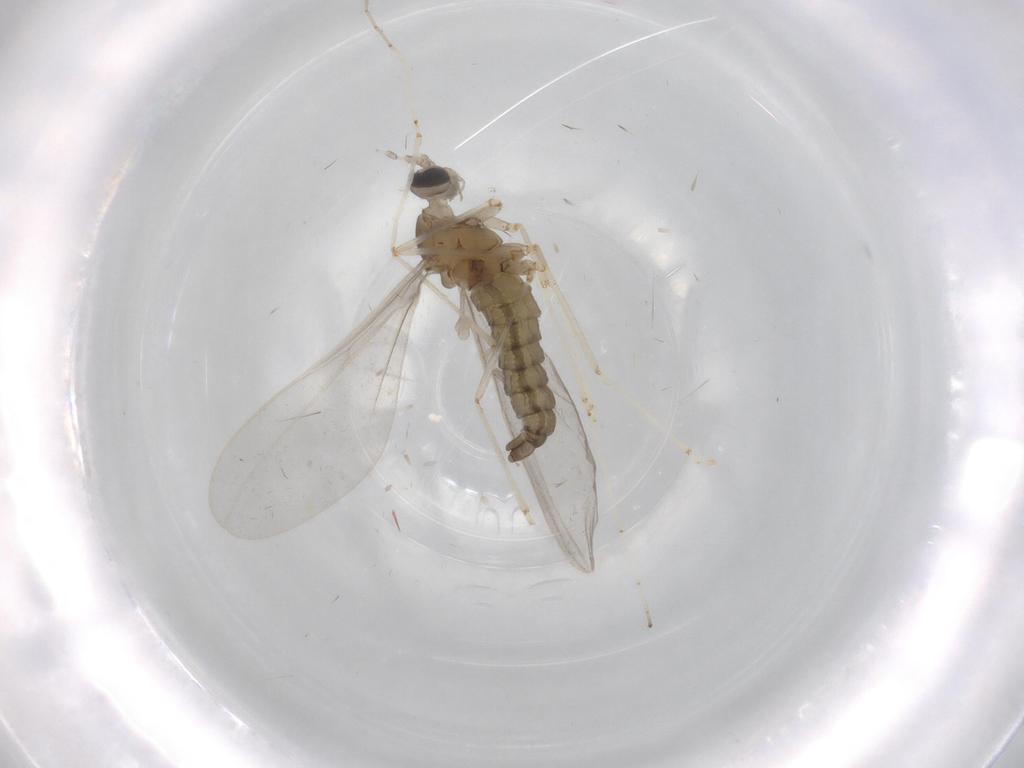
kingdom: Animalia
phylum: Arthropoda
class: Insecta
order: Diptera
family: Cecidomyiidae
